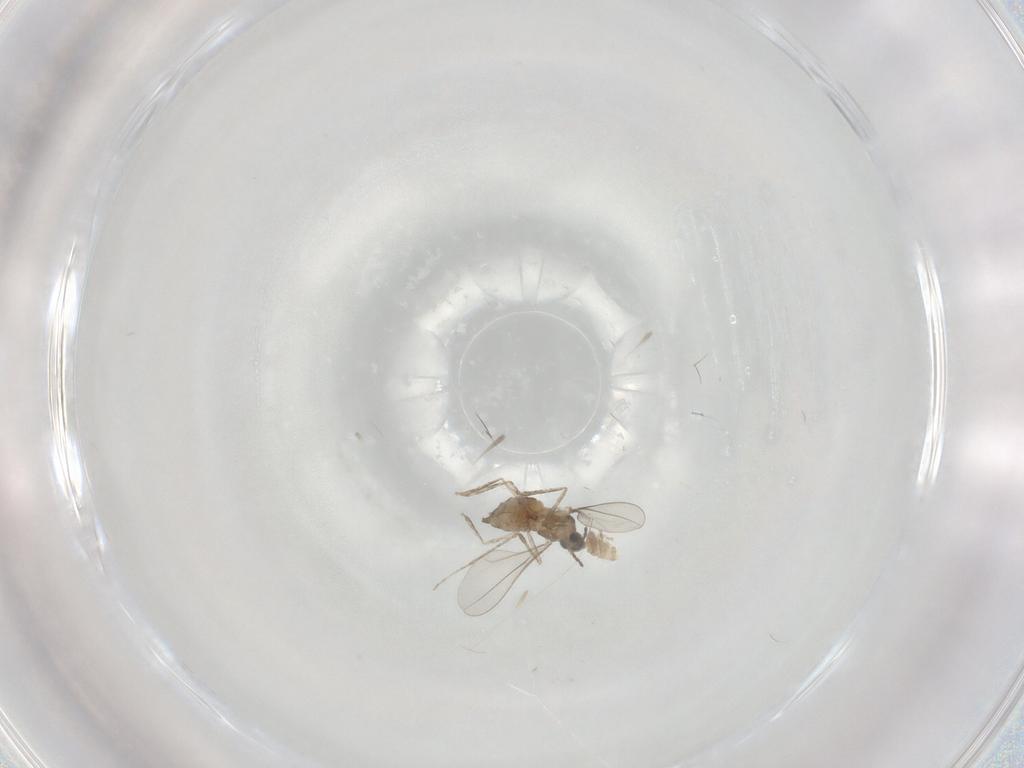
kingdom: Animalia
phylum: Arthropoda
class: Insecta
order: Diptera
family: Cecidomyiidae
